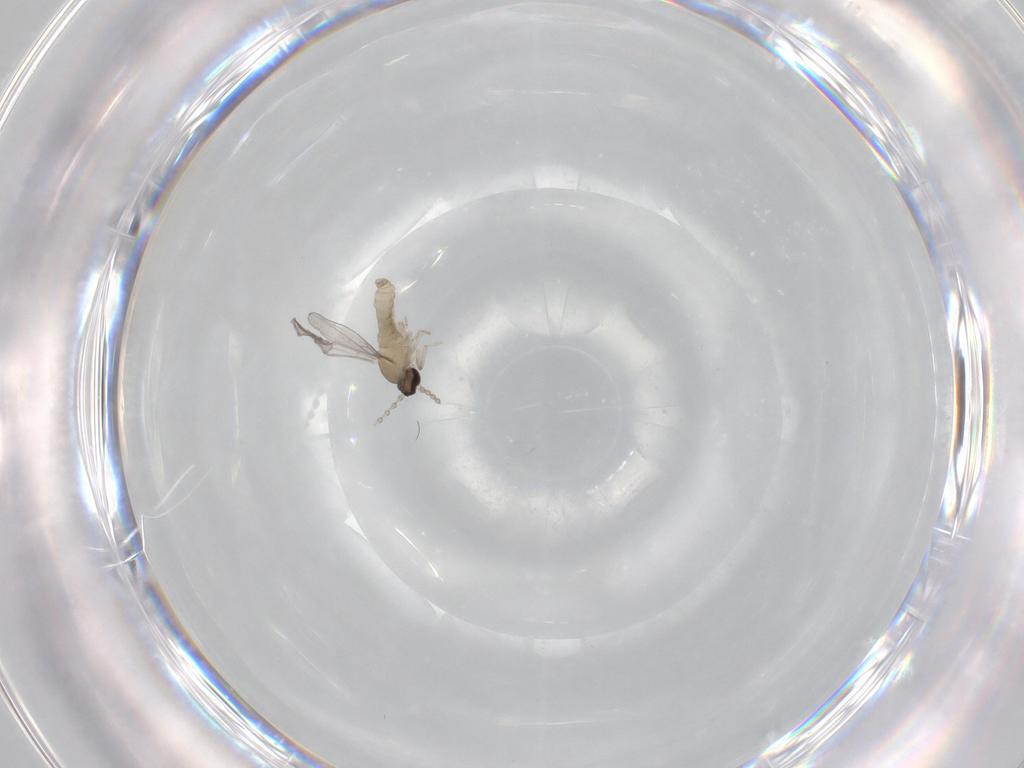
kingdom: Animalia
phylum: Arthropoda
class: Insecta
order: Diptera
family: Cecidomyiidae
